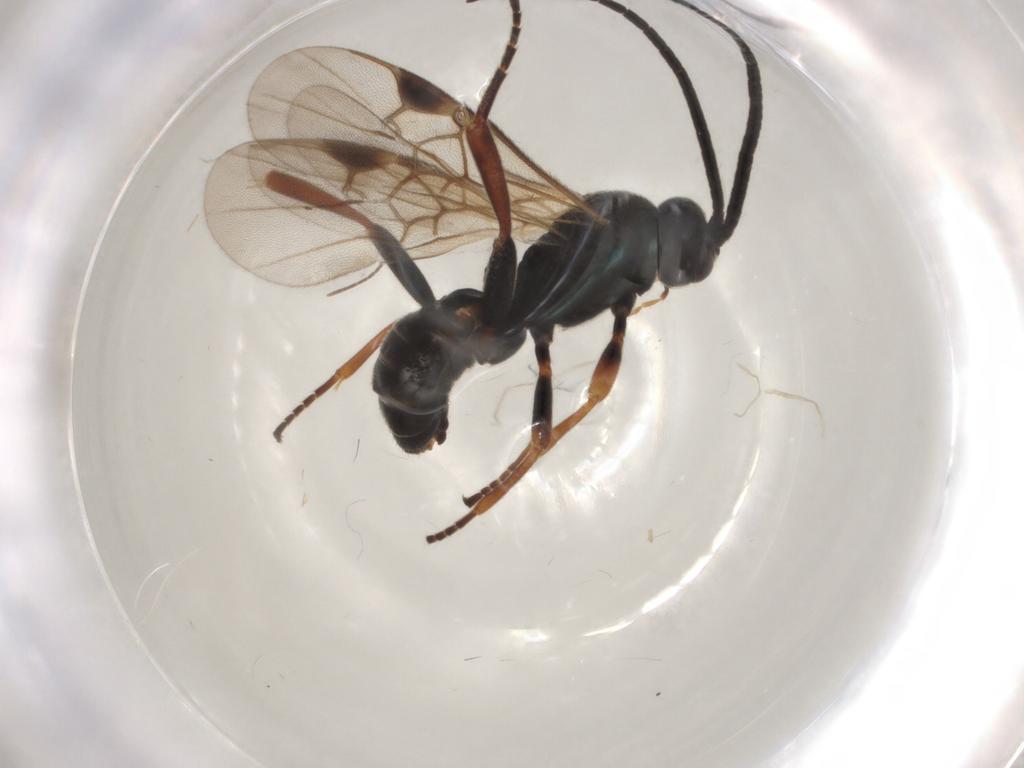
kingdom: Animalia
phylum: Arthropoda
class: Insecta
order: Hymenoptera
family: Braconidae
